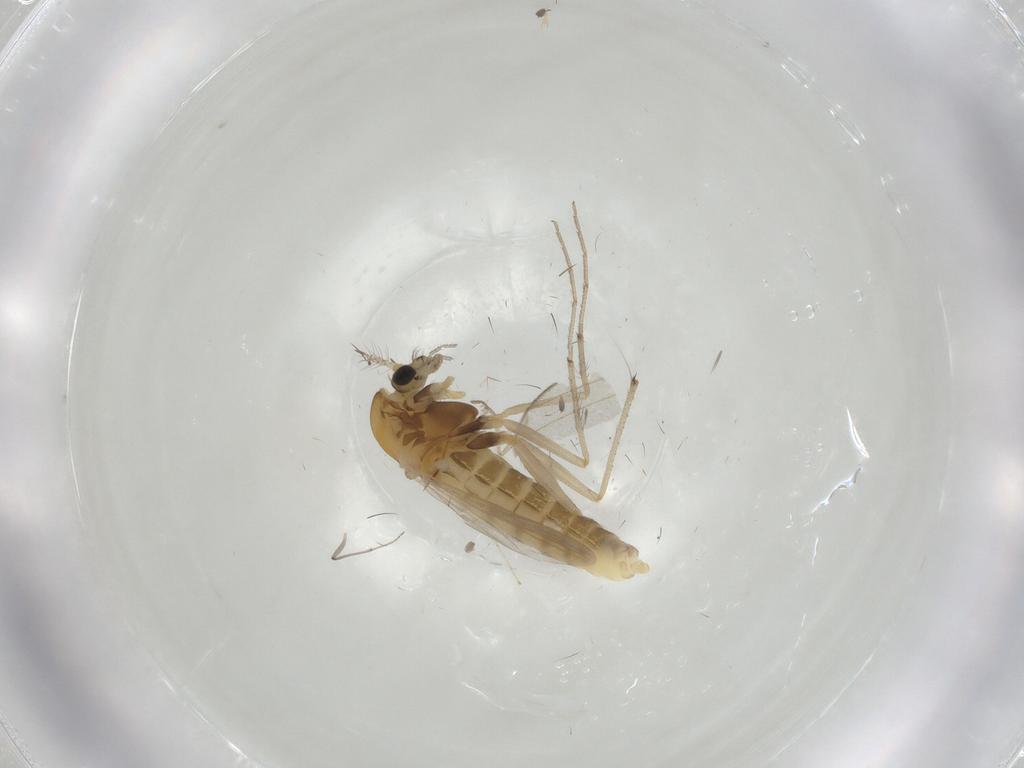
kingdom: Animalia
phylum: Arthropoda
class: Insecta
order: Diptera
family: Chironomidae
